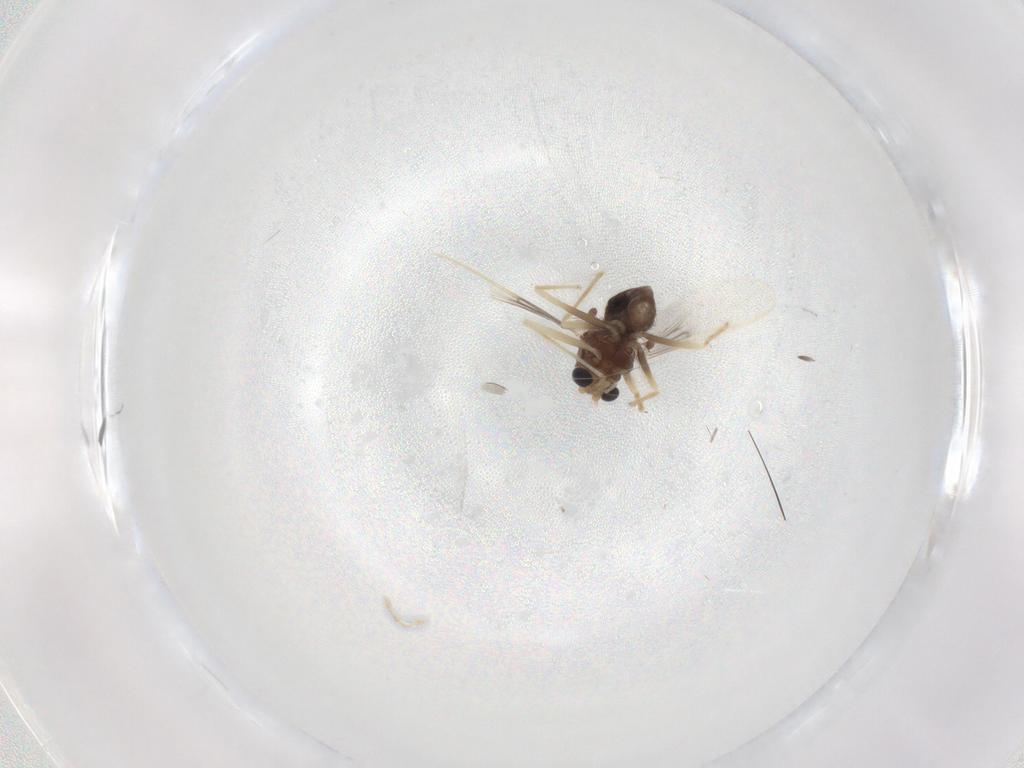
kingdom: Animalia
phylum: Arthropoda
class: Insecta
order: Diptera
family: Chironomidae
